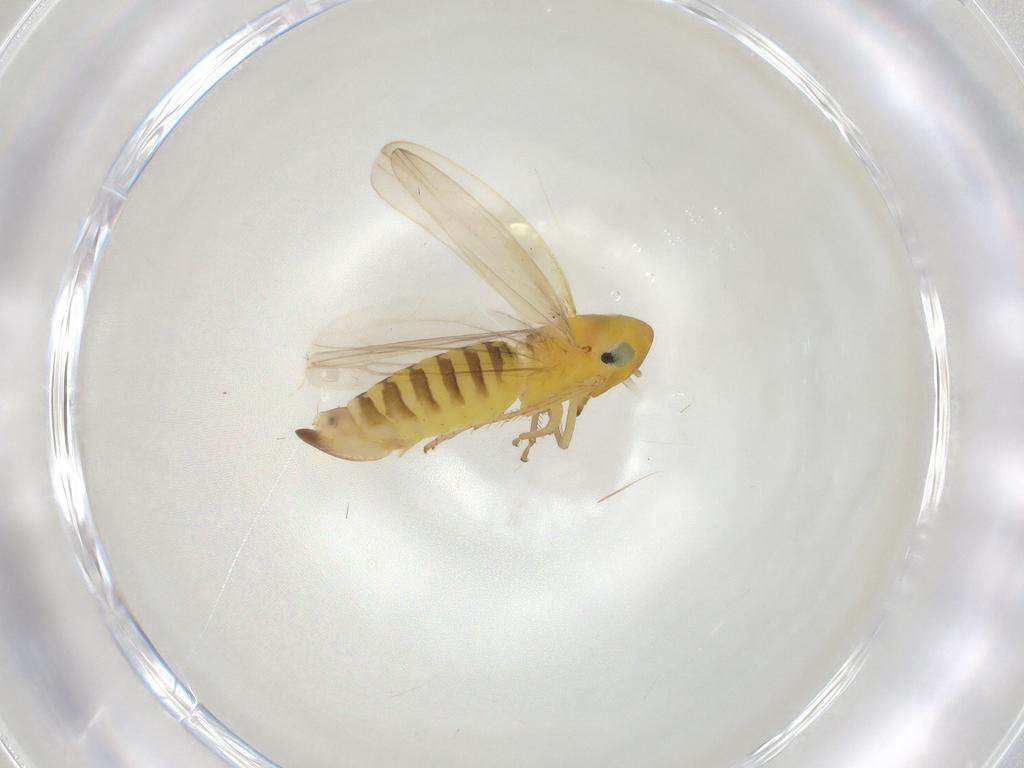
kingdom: Animalia
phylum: Arthropoda
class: Insecta
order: Hemiptera
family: Cicadellidae
